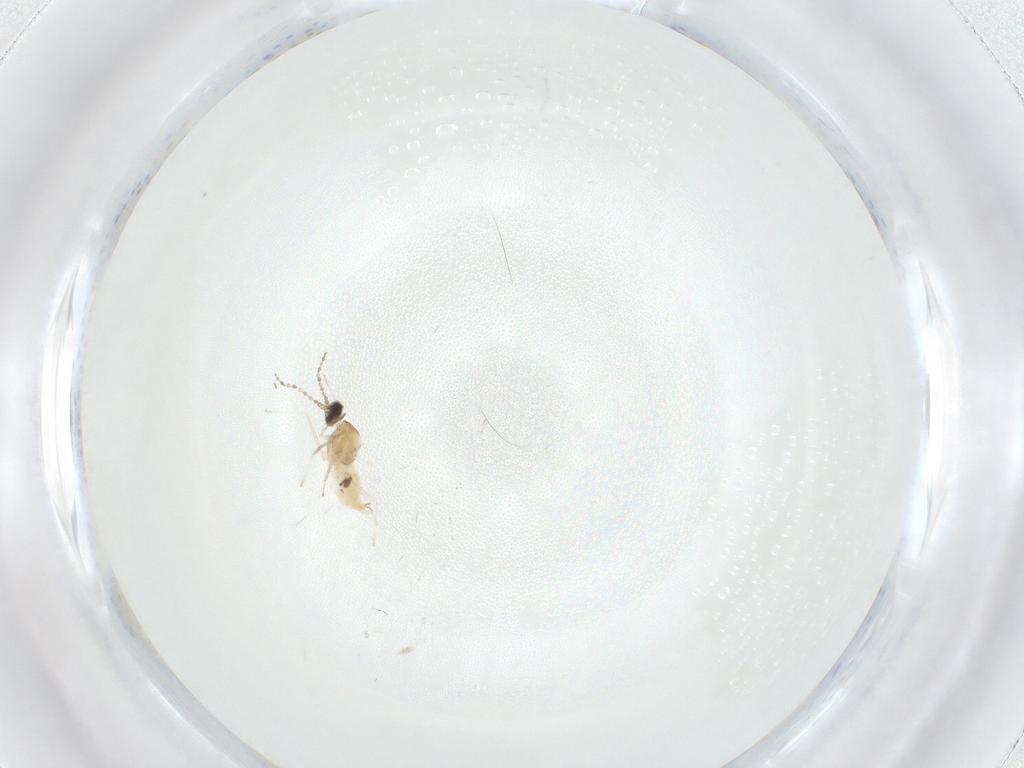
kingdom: Animalia
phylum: Arthropoda
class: Insecta
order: Diptera
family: Cecidomyiidae
